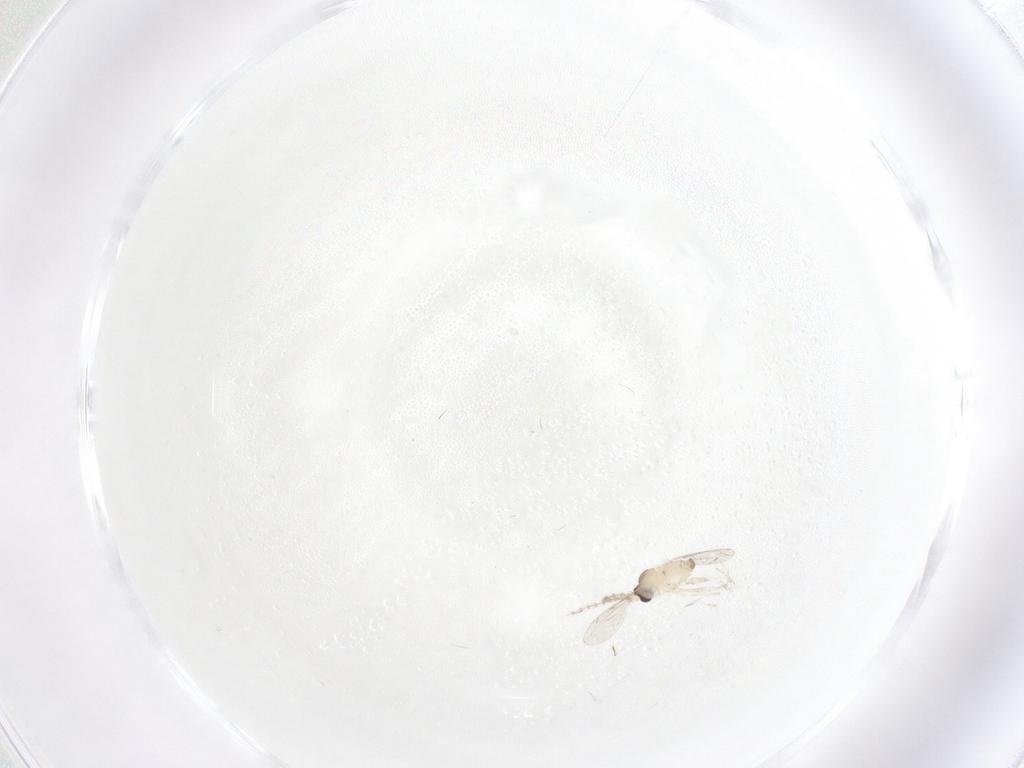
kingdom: Animalia
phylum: Arthropoda
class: Insecta
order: Diptera
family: Cecidomyiidae
